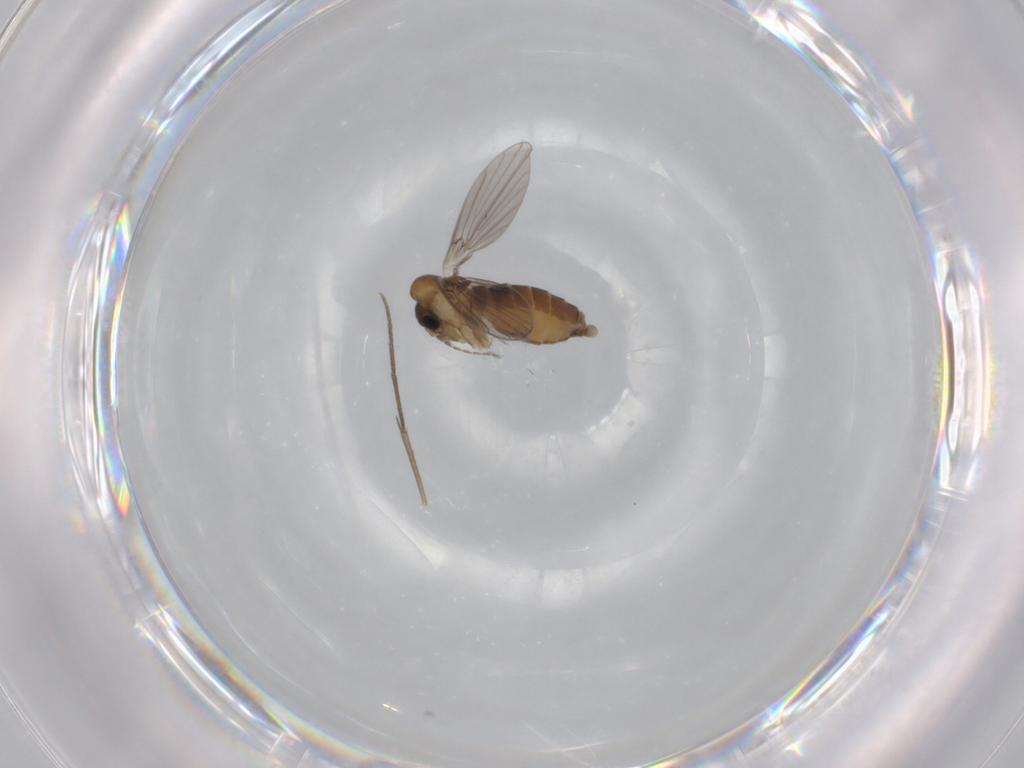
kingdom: Animalia
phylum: Arthropoda
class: Insecta
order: Diptera
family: Mycetophilidae
